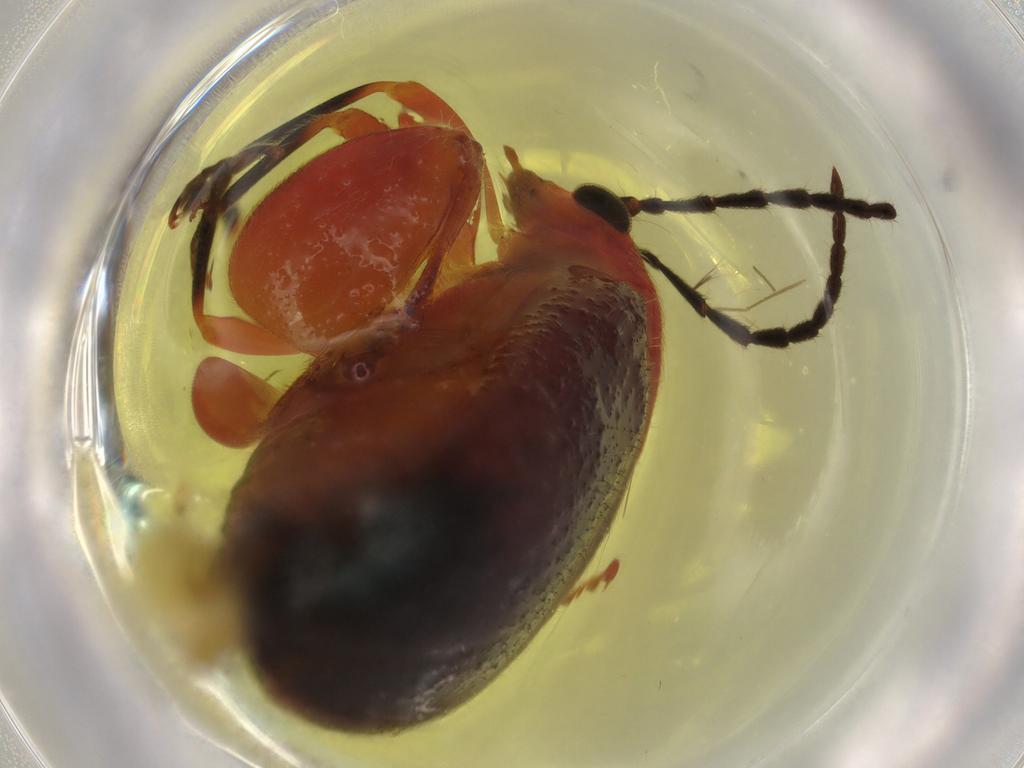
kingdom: Animalia
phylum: Arthropoda
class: Insecta
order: Coleoptera
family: Chrysomelidae
